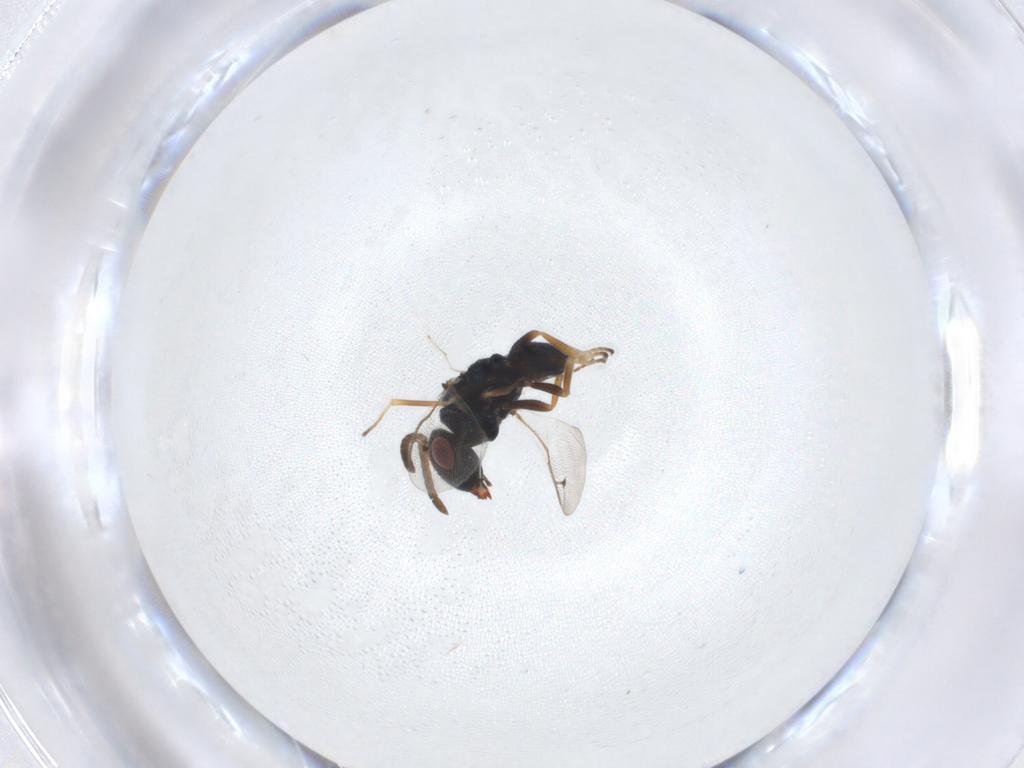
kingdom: Animalia
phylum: Arthropoda
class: Insecta
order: Hymenoptera
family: Pteromalidae
